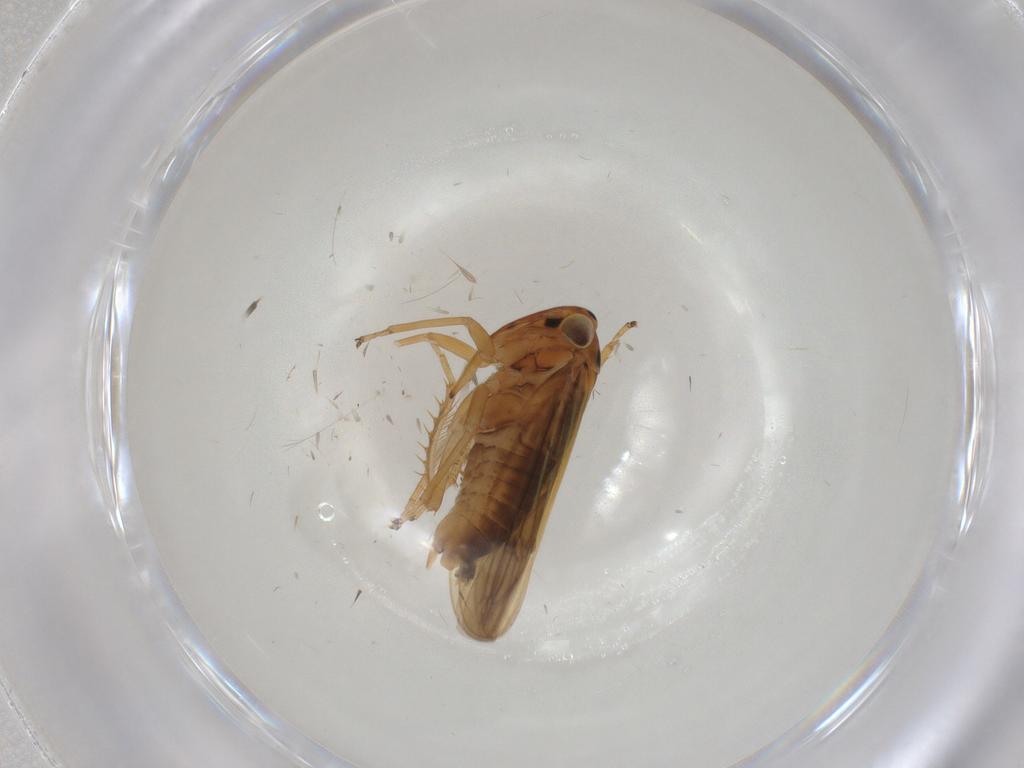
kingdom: Animalia
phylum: Arthropoda
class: Insecta
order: Hemiptera
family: Cicadellidae
